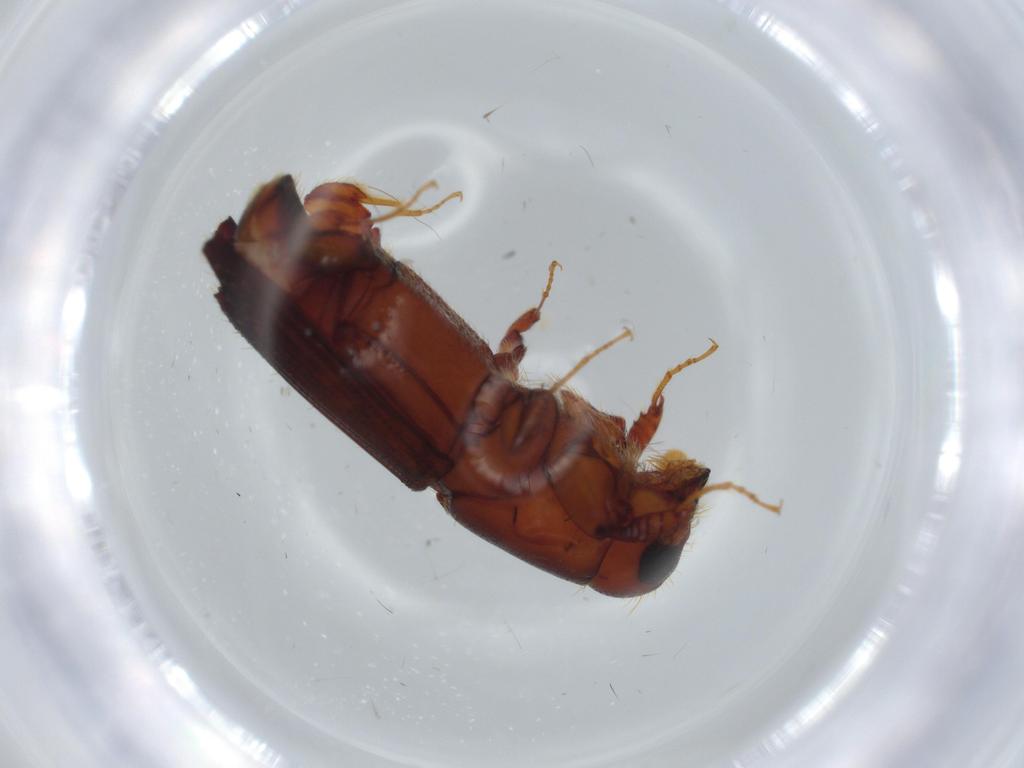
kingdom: Animalia
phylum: Arthropoda
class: Insecta
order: Coleoptera
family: Curculionidae
